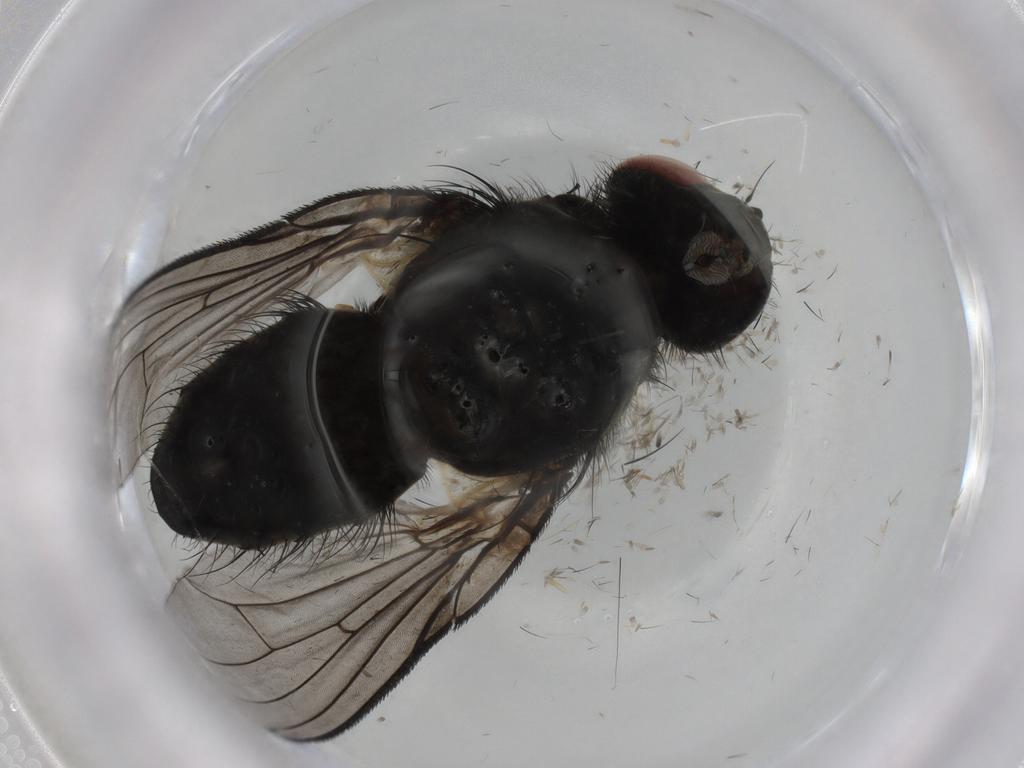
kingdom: Animalia
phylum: Arthropoda
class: Insecta
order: Diptera
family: Muscidae
